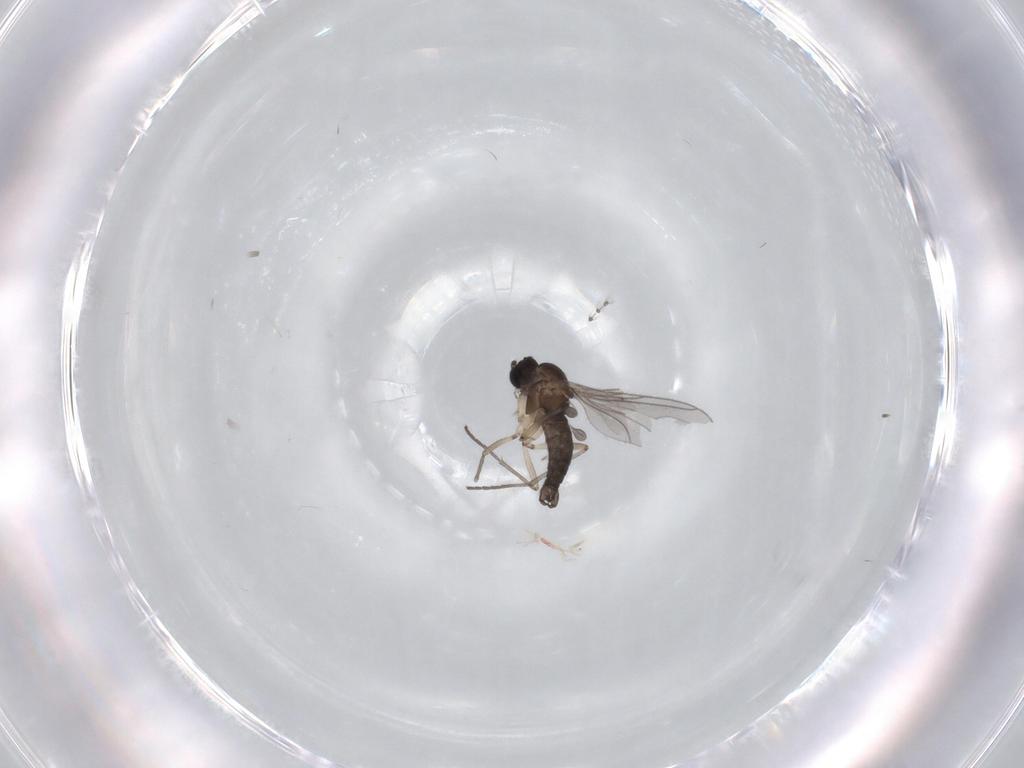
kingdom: Animalia
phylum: Arthropoda
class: Insecta
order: Diptera
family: Sciaridae
